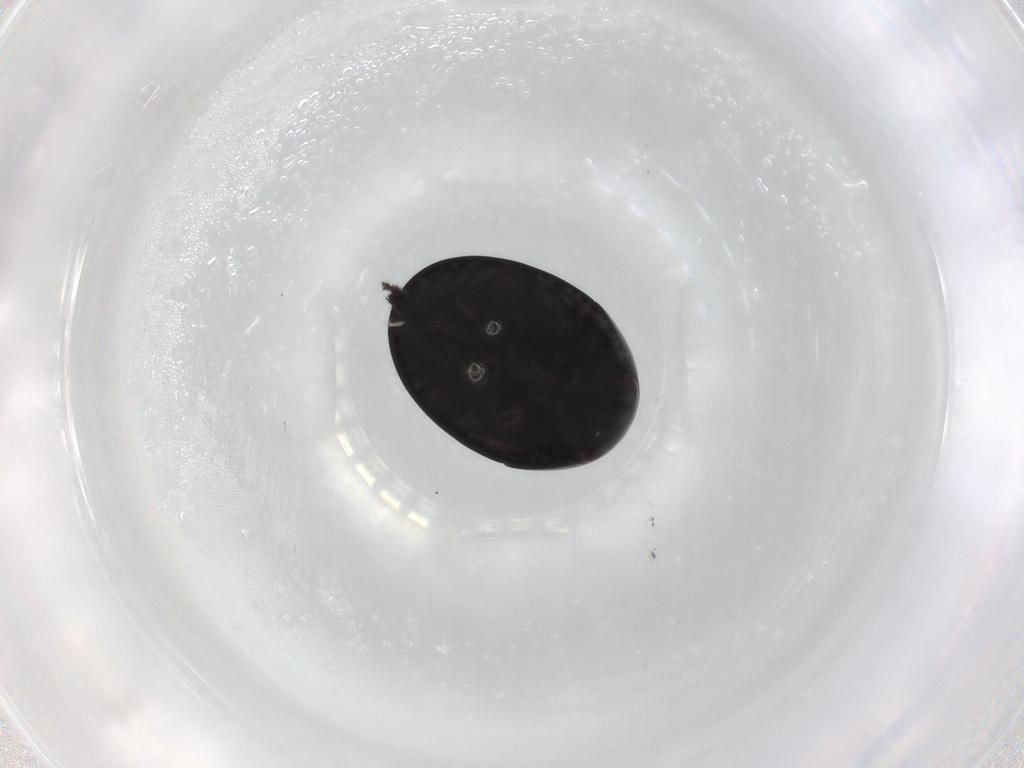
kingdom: Animalia
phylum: Arthropoda
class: Insecta
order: Coleoptera
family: Phalacridae
